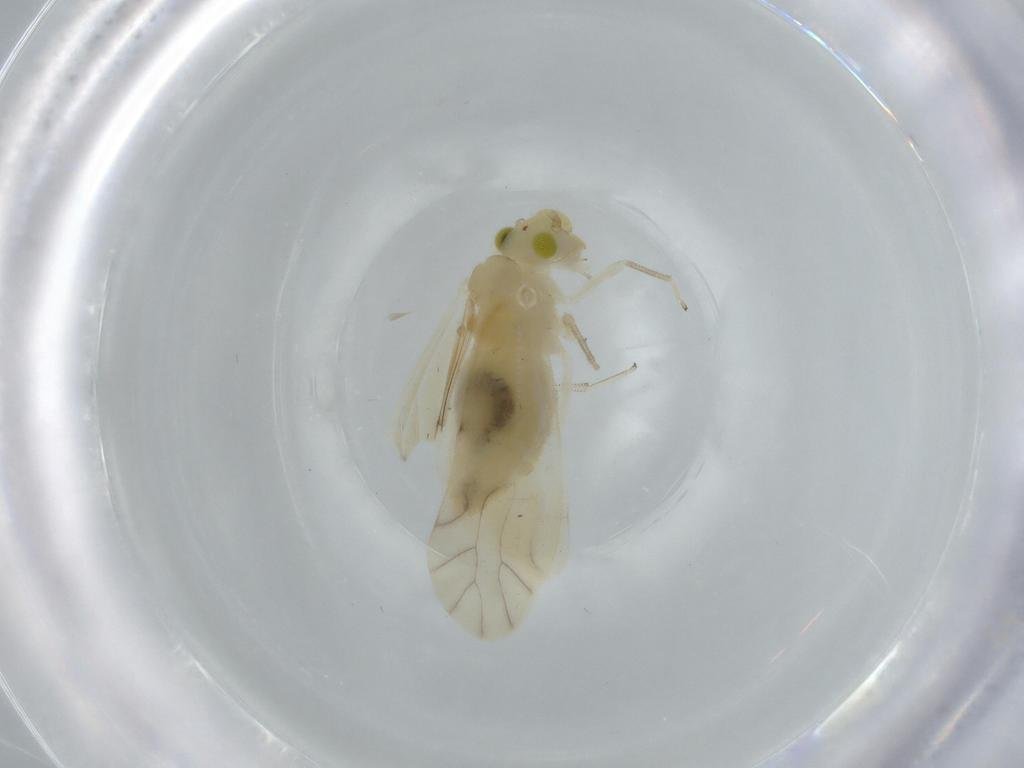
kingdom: Animalia
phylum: Arthropoda
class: Insecta
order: Psocodea
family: Caeciliusidae
